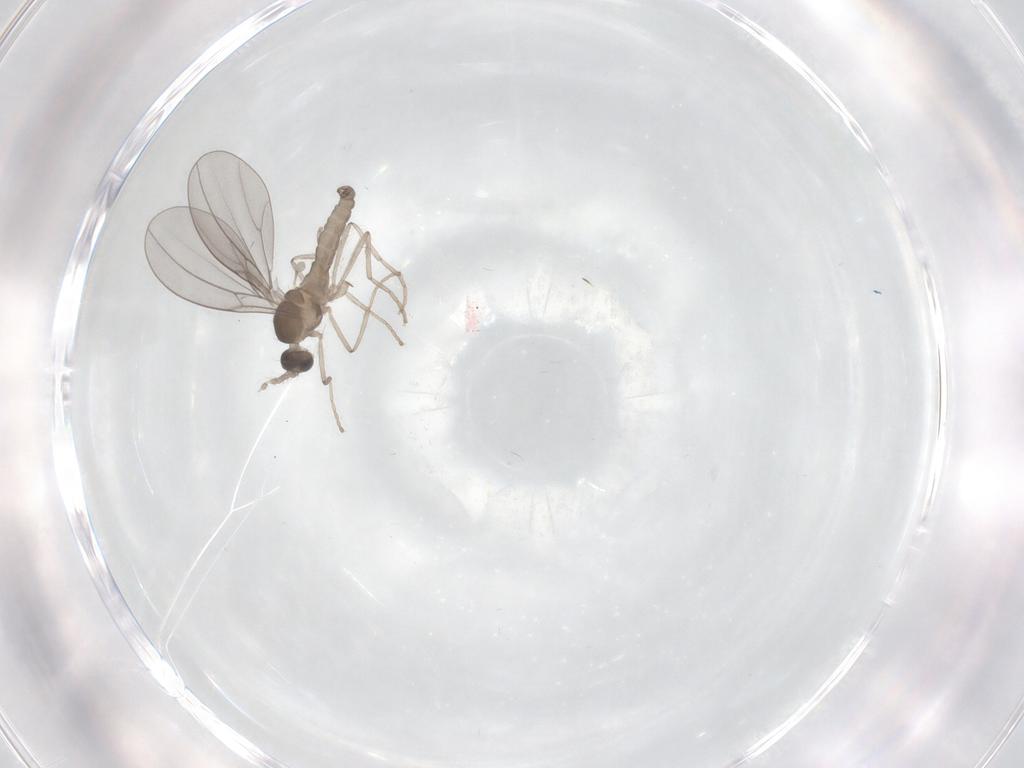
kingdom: Animalia
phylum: Arthropoda
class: Insecta
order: Diptera
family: Cecidomyiidae
